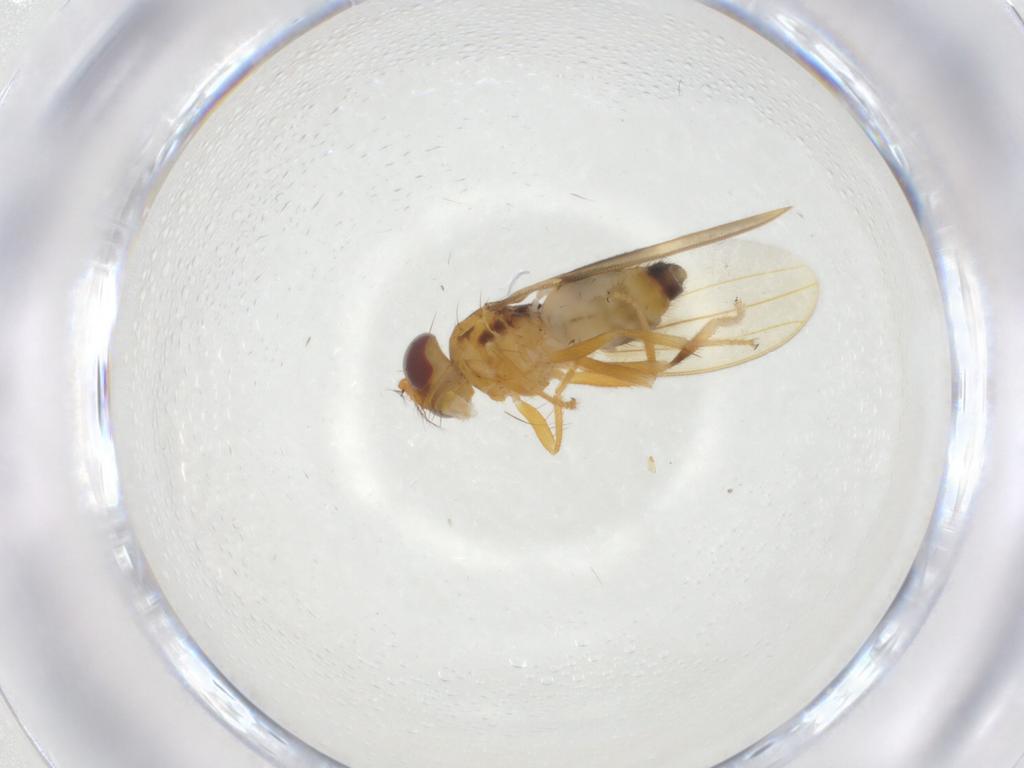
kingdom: Animalia
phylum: Arthropoda
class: Insecta
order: Diptera
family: Periscelididae
